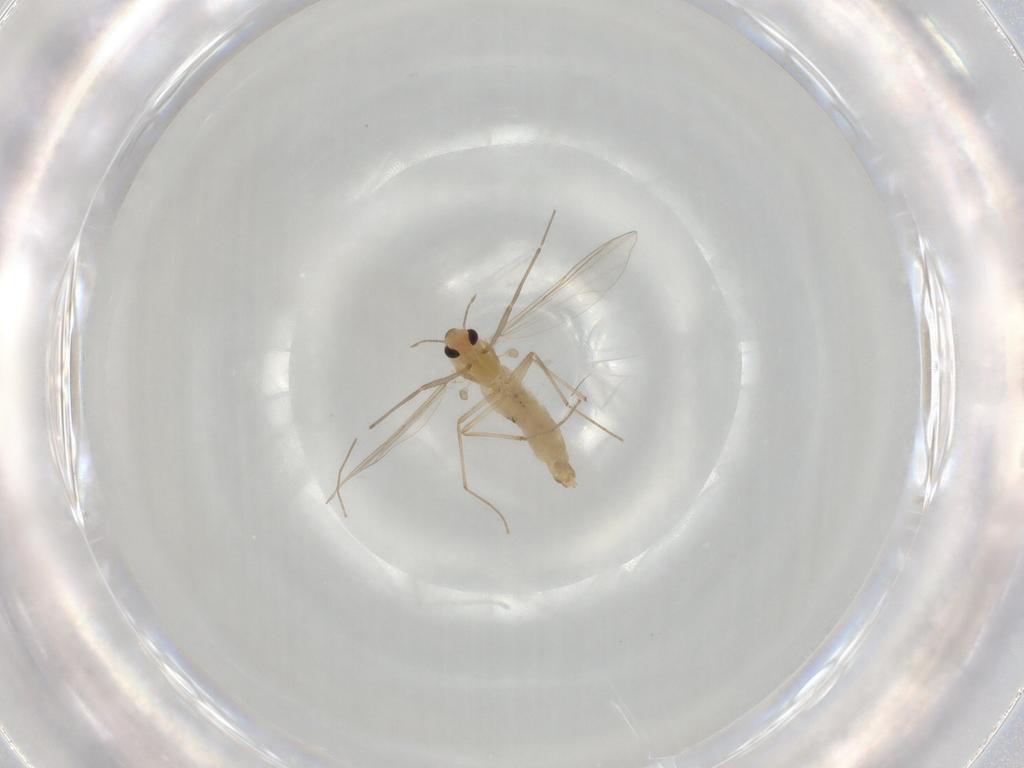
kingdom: Animalia
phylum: Arthropoda
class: Insecta
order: Diptera
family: Chironomidae
